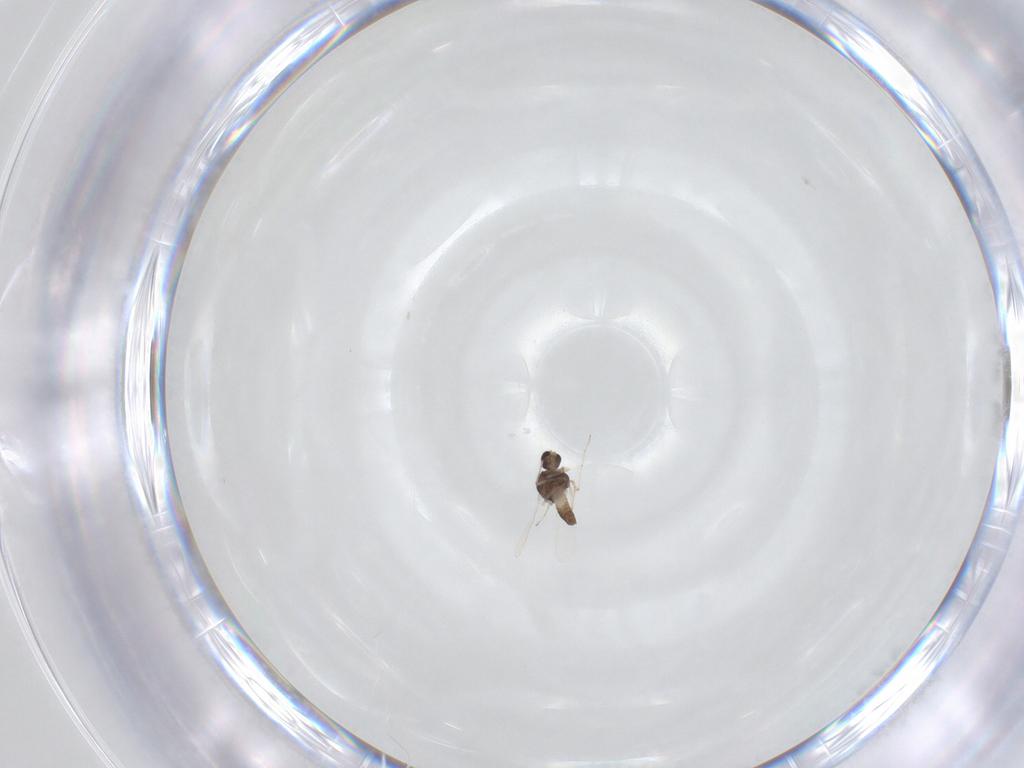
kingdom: Animalia
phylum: Arthropoda
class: Insecta
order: Diptera
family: Chironomidae
